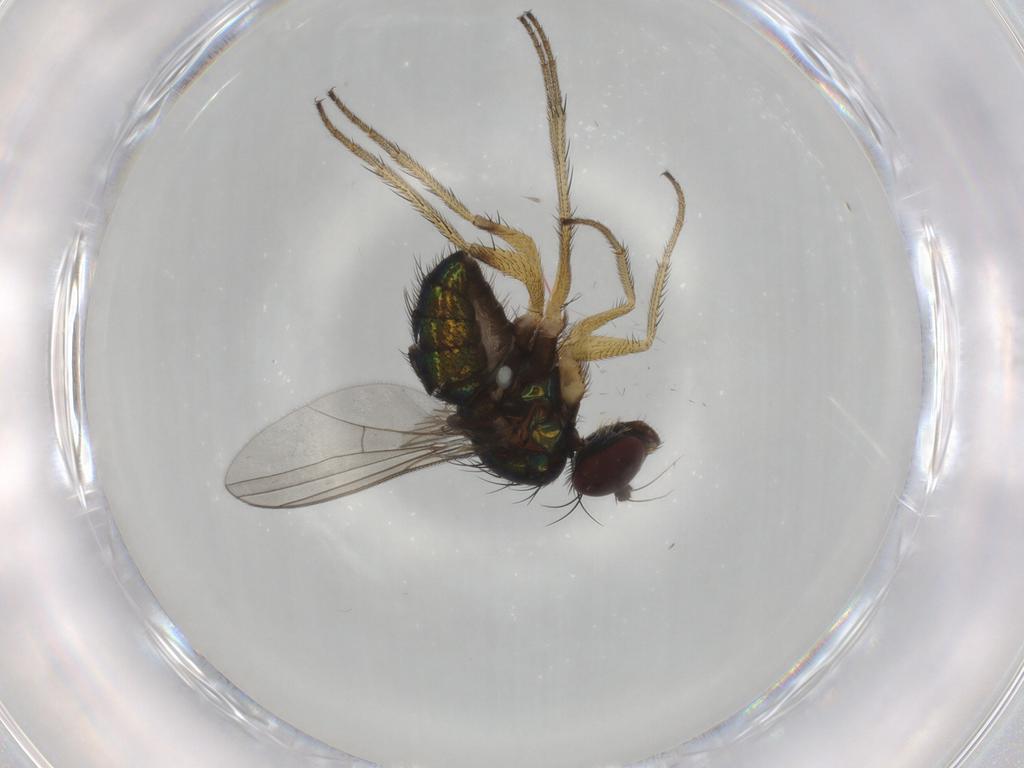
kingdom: Animalia
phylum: Arthropoda
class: Insecta
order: Diptera
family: Dolichopodidae
